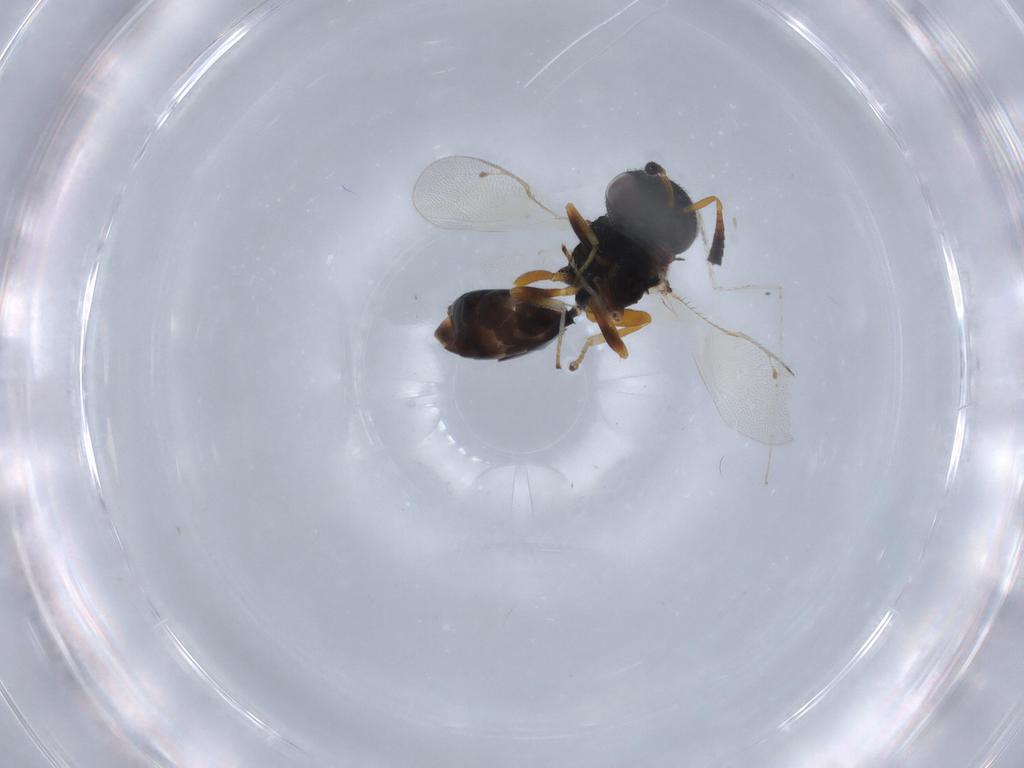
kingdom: Animalia
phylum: Arthropoda
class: Insecta
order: Hymenoptera
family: Agaonidae
